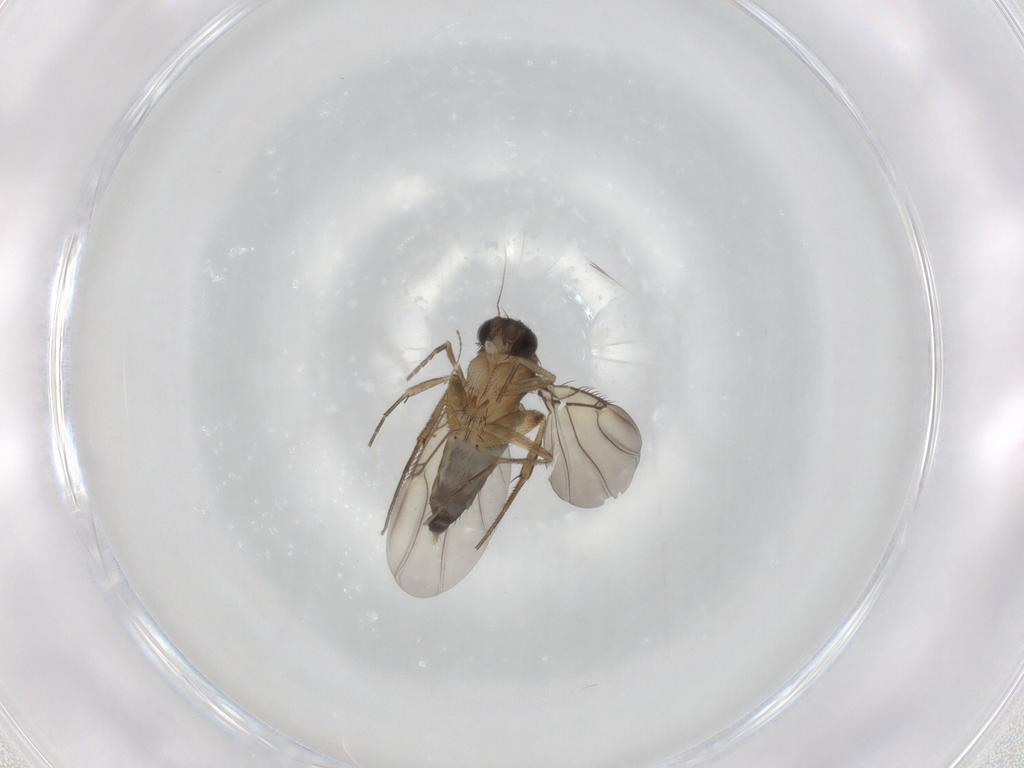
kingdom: Animalia
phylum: Arthropoda
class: Insecta
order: Diptera
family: Phoridae
